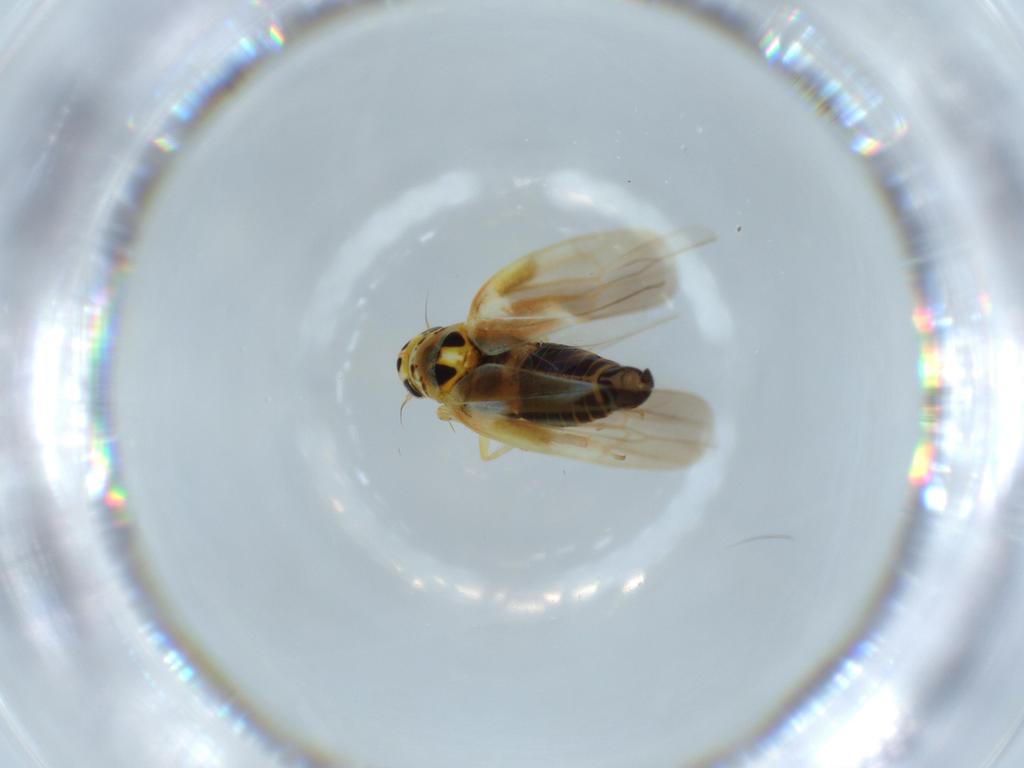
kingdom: Animalia
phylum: Arthropoda
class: Insecta
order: Hemiptera
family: Cicadellidae
